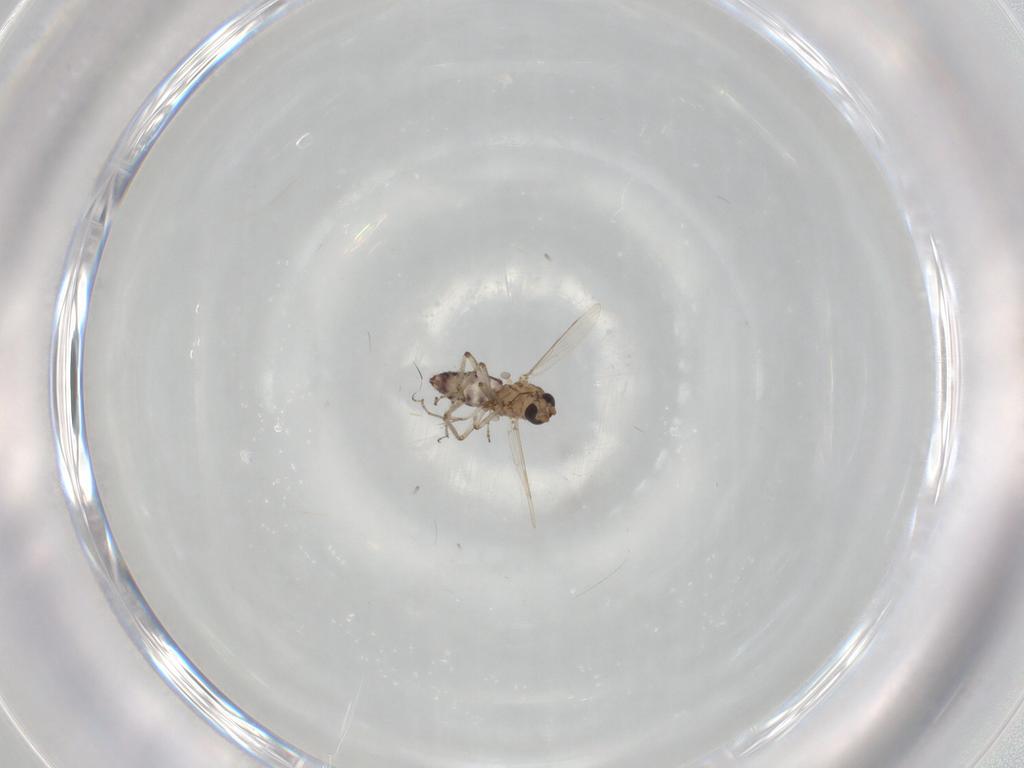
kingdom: Animalia
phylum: Arthropoda
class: Insecta
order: Diptera
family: Ceratopogonidae
